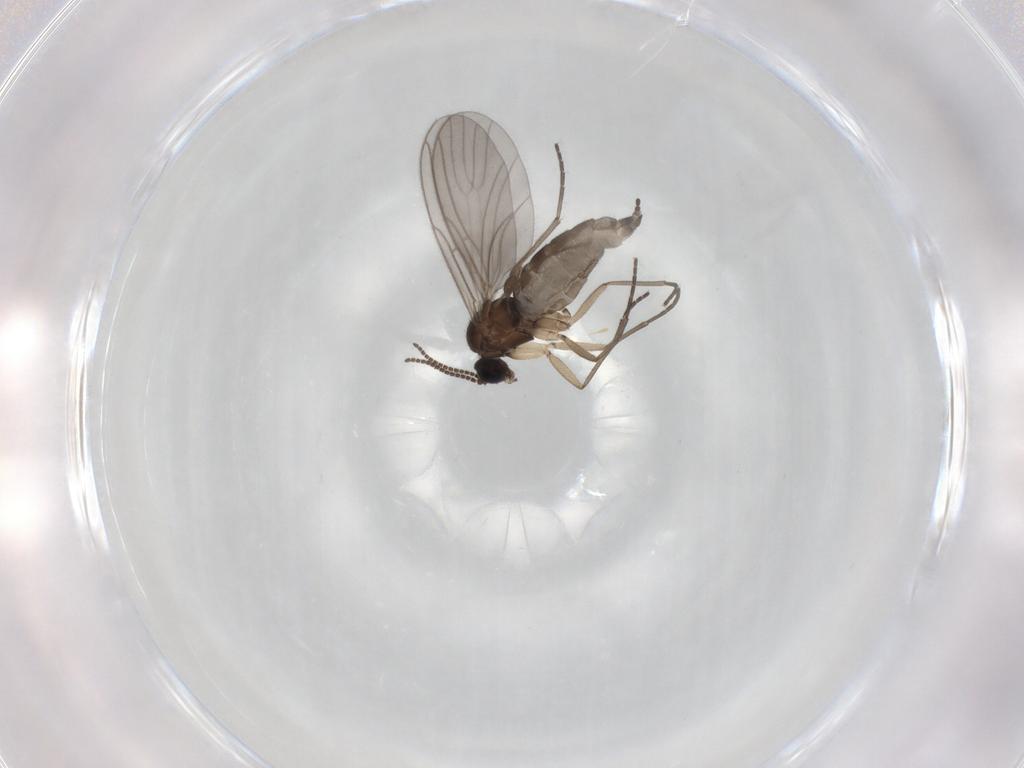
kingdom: Animalia
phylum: Arthropoda
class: Insecta
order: Diptera
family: Sciaridae
